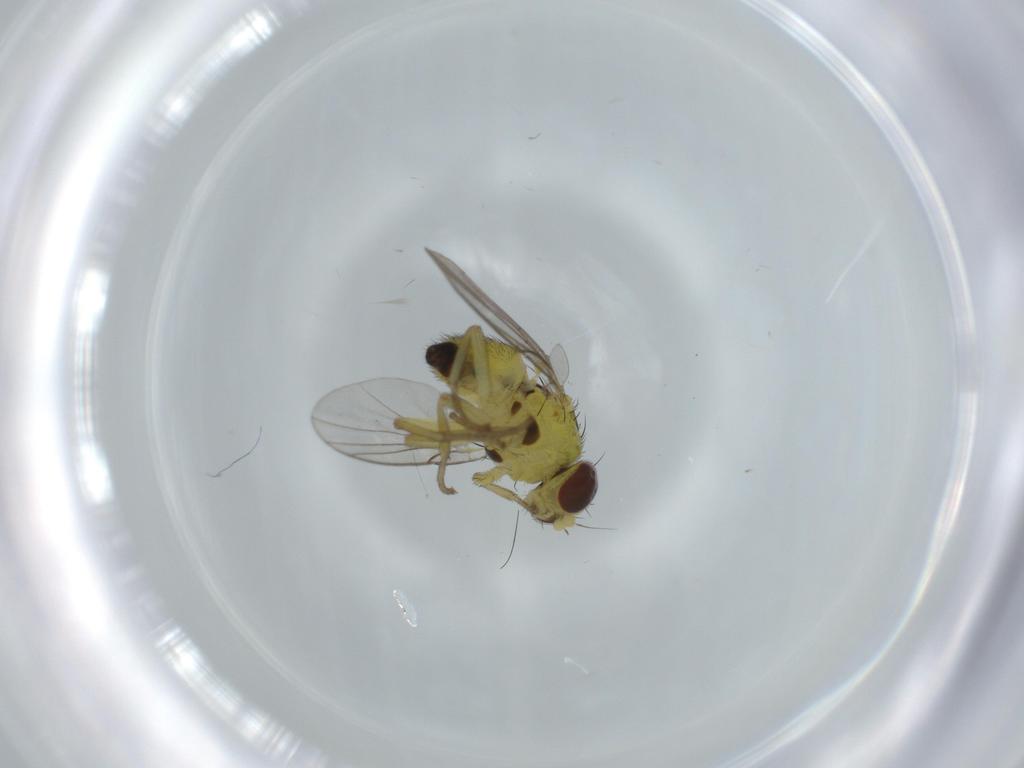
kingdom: Animalia
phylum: Arthropoda
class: Insecta
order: Diptera
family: Agromyzidae
